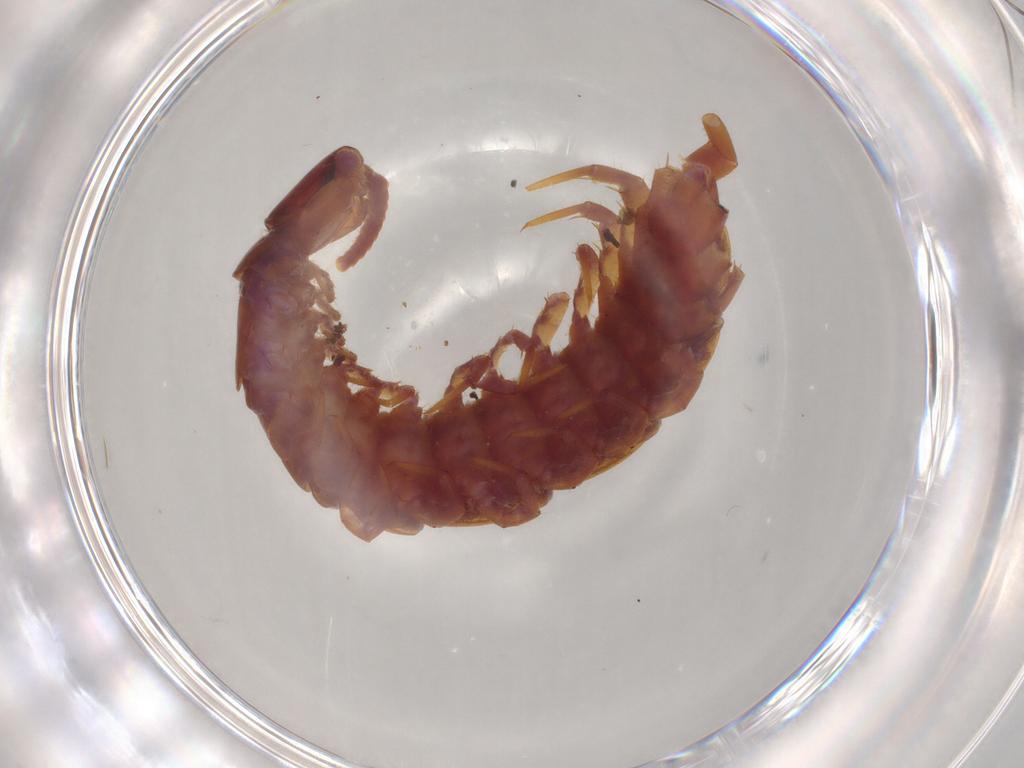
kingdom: Animalia
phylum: Arthropoda
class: Chilopoda
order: Lithobiomorpha
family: Lithobiidae
